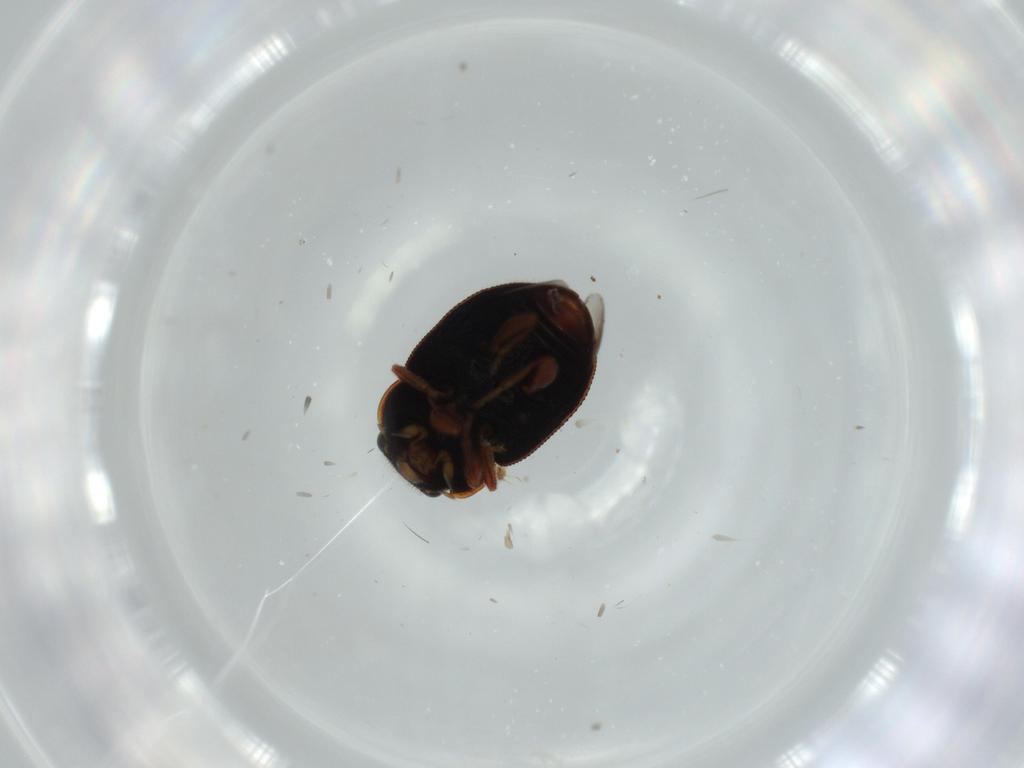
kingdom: Animalia
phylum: Arthropoda
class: Insecta
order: Coleoptera
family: Coccinellidae
